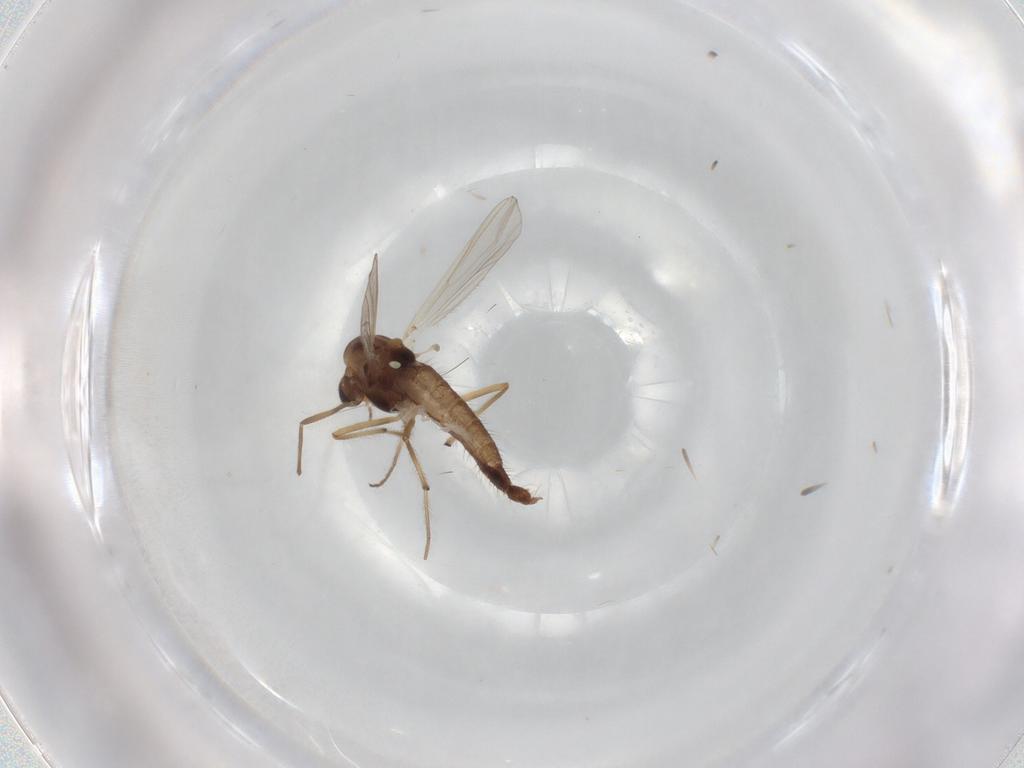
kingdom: Animalia
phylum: Arthropoda
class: Insecta
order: Diptera
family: Chironomidae
